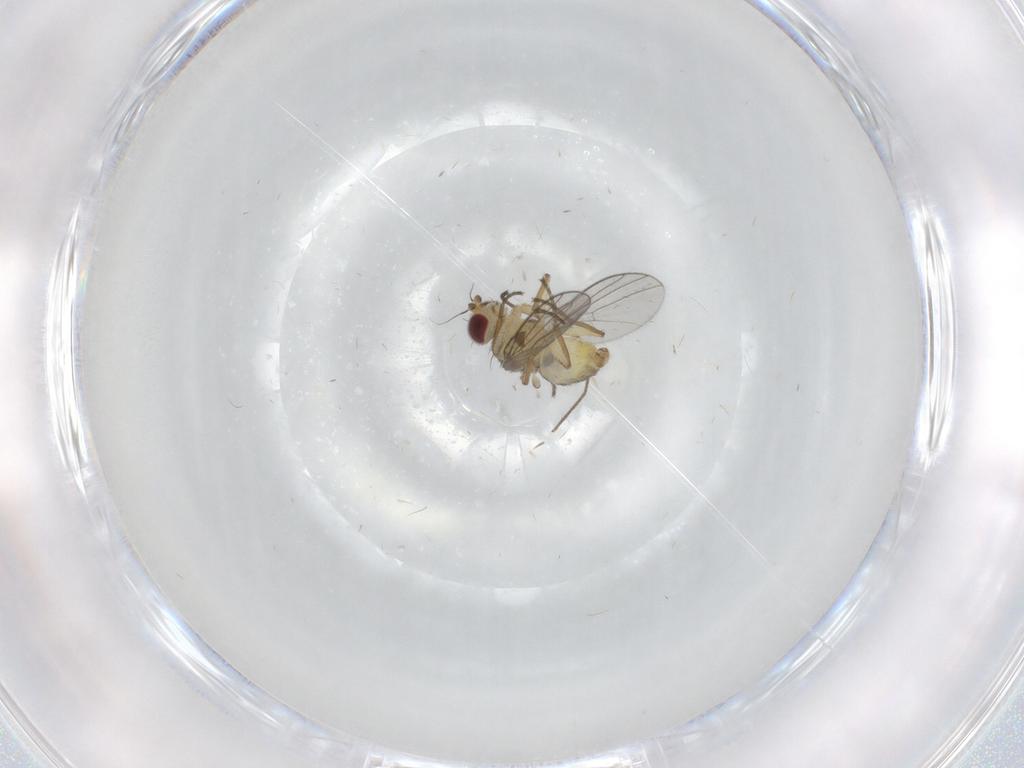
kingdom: Animalia
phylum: Arthropoda
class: Insecta
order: Diptera
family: Agromyzidae
